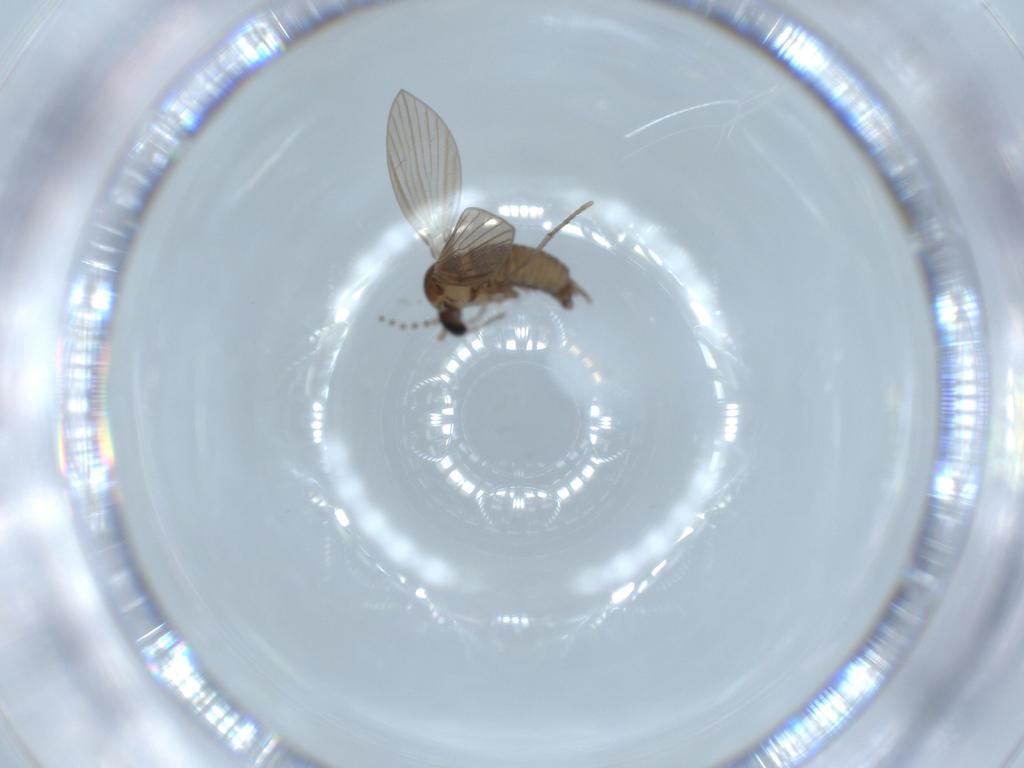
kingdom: Animalia
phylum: Arthropoda
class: Insecta
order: Diptera
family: Psychodidae
